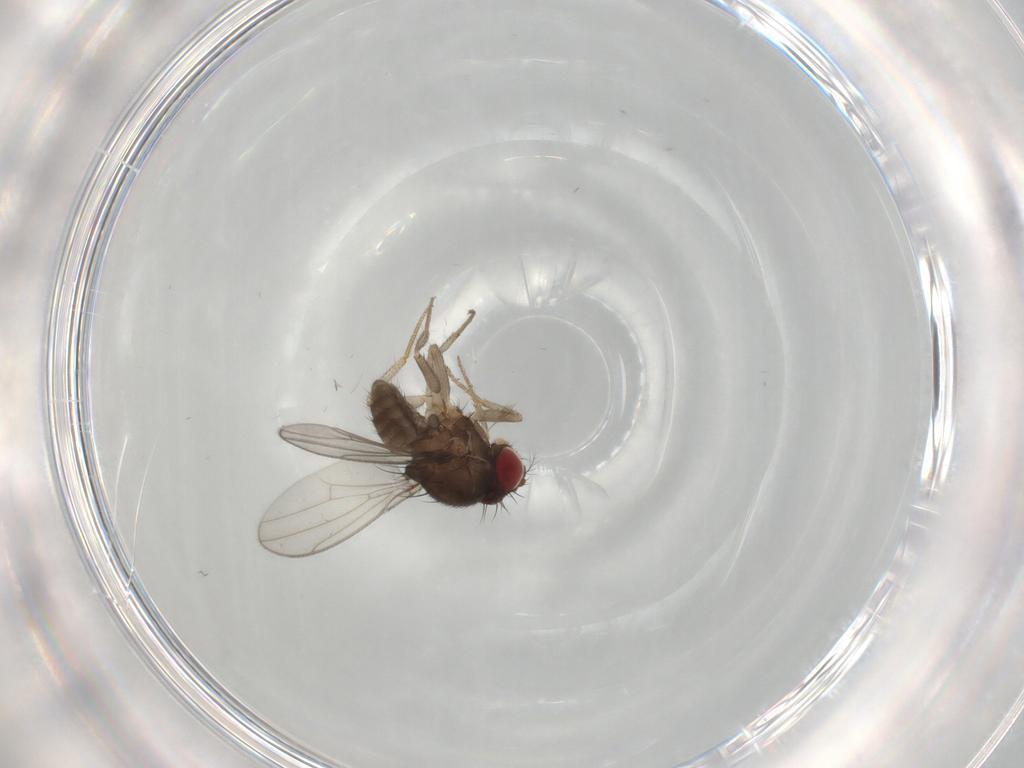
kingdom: Animalia
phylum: Arthropoda
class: Insecta
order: Diptera
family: Drosophilidae
